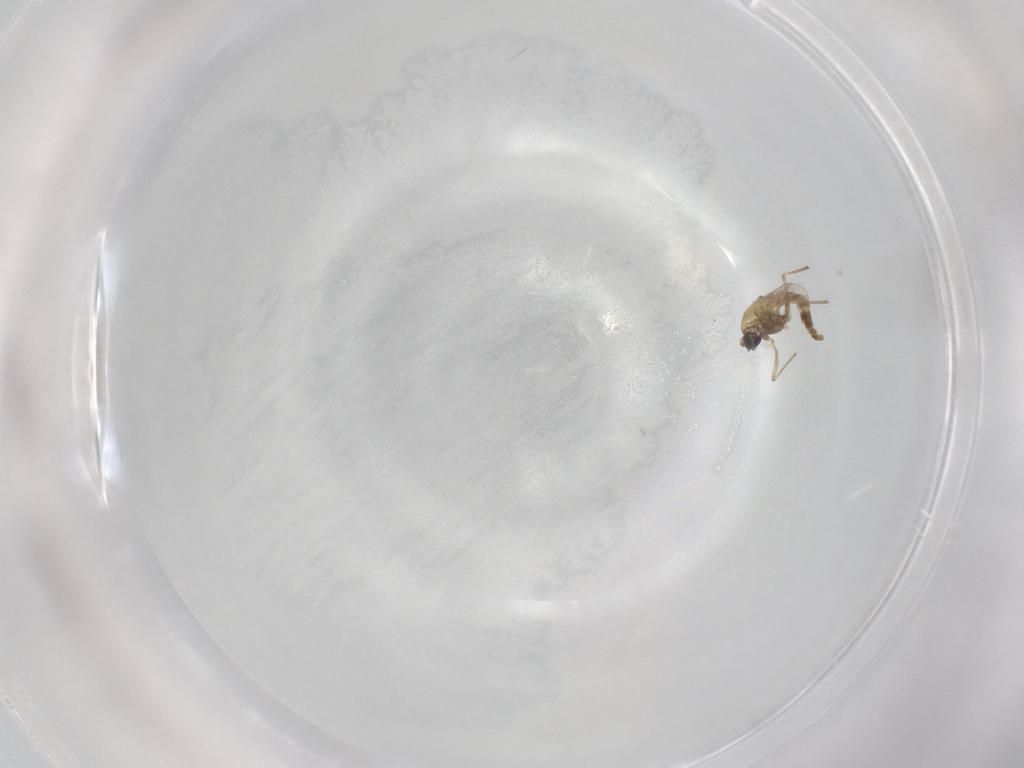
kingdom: Animalia
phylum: Arthropoda
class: Insecta
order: Diptera
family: Chironomidae
